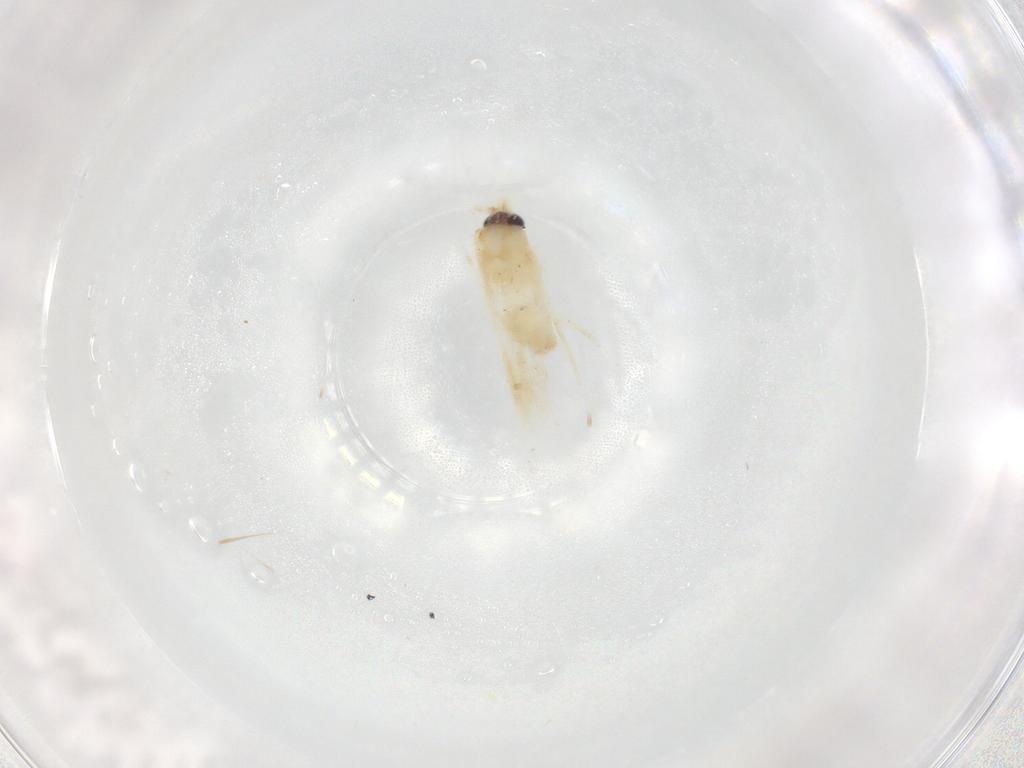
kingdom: Animalia
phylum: Arthropoda
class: Insecta
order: Lepidoptera
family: Nepticulidae
